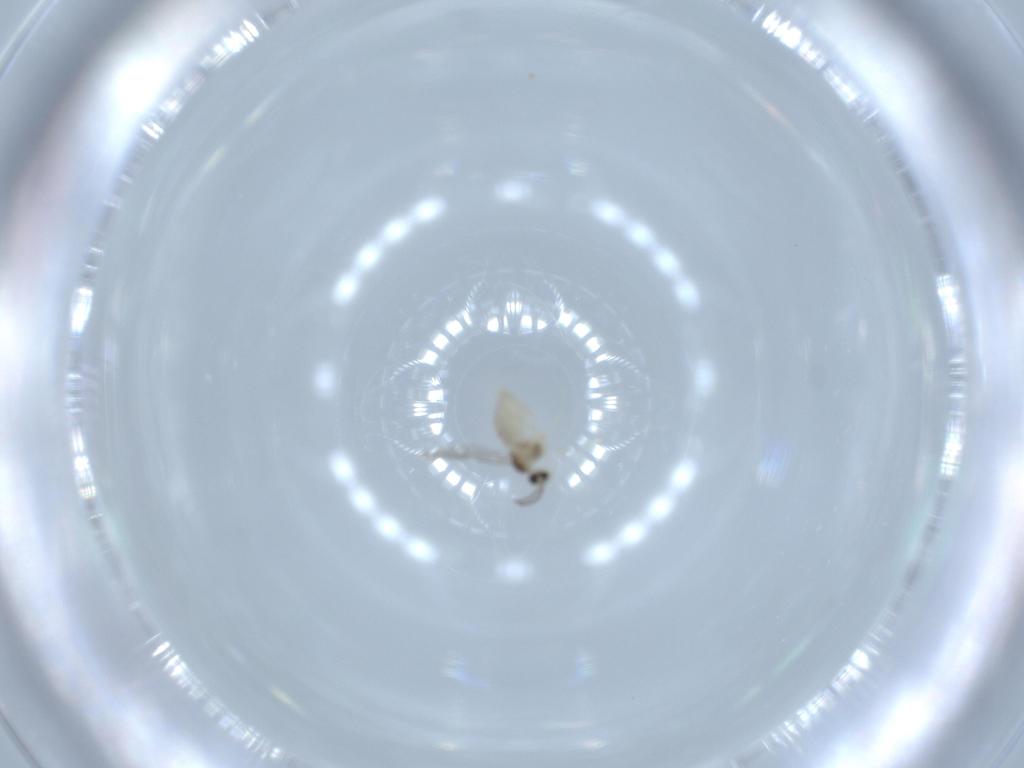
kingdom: Animalia
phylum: Arthropoda
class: Insecta
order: Diptera
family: Cecidomyiidae
